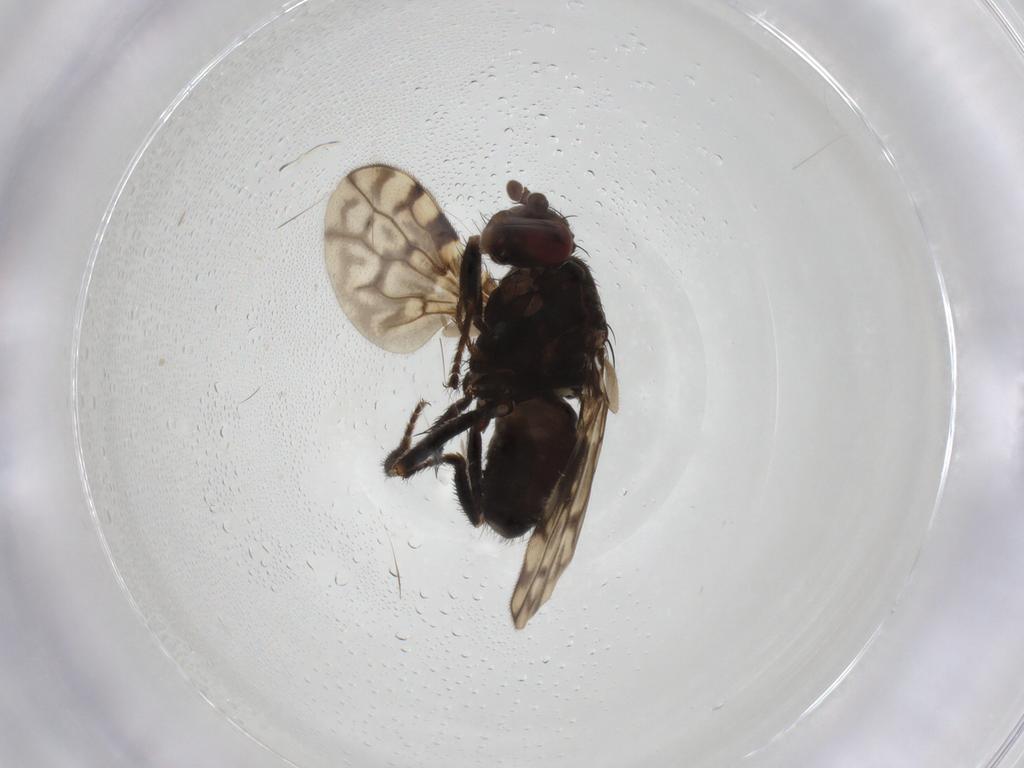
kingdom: Animalia
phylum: Arthropoda
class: Insecta
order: Diptera
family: Sphaeroceridae
